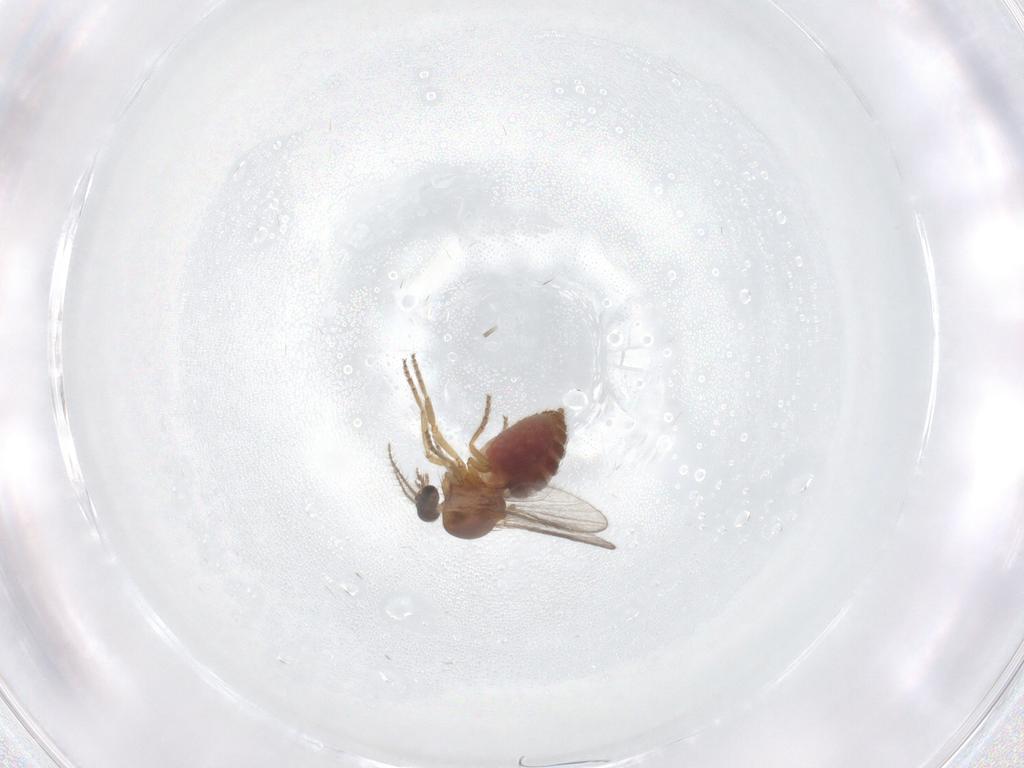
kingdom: Animalia
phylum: Arthropoda
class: Insecta
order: Diptera
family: Ceratopogonidae
